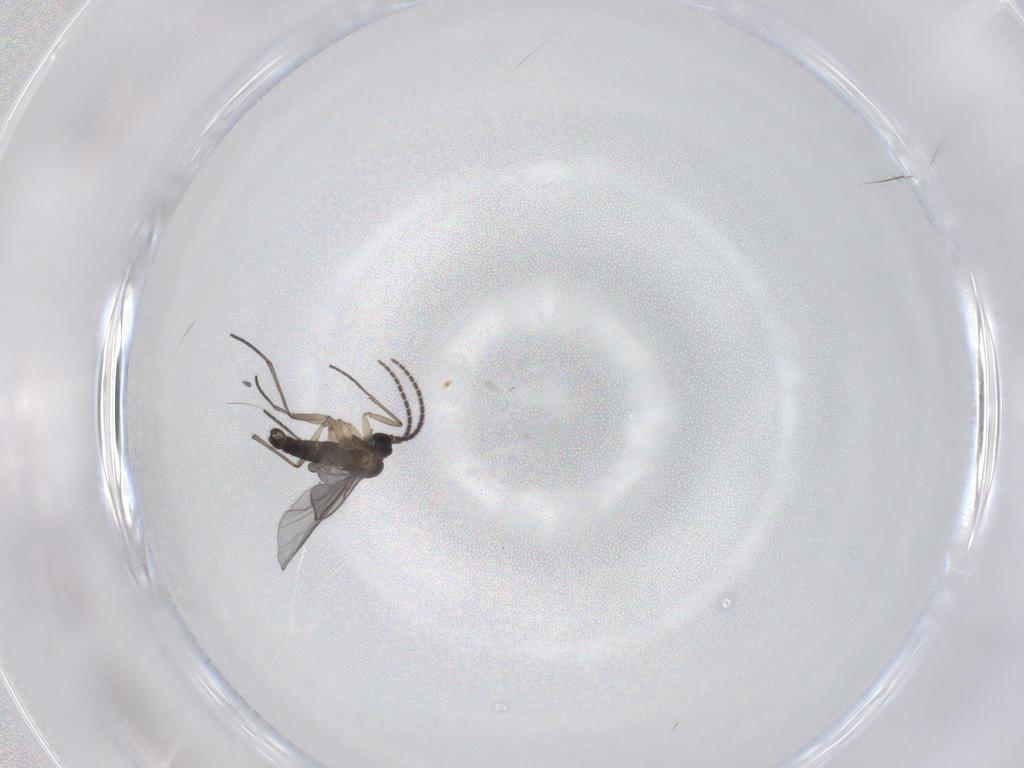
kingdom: Animalia
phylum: Arthropoda
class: Insecta
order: Diptera
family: Sciaridae
